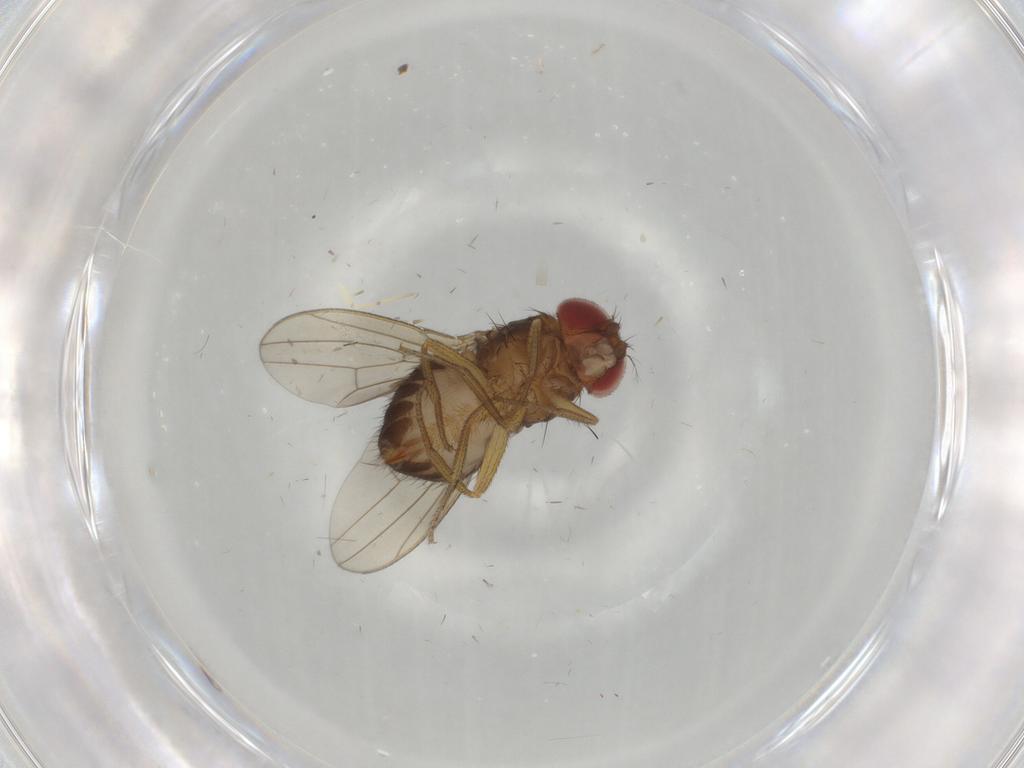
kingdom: Animalia
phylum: Arthropoda
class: Insecta
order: Diptera
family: Drosophilidae
